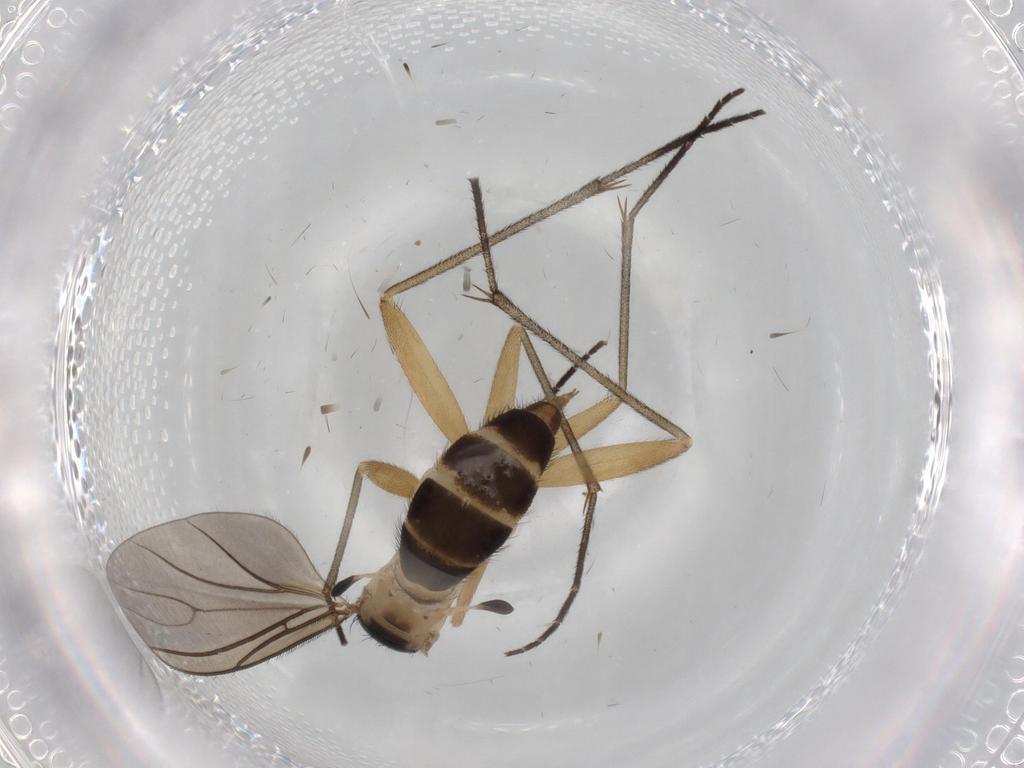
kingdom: Animalia
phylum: Arthropoda
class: Insecta
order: Diptera
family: Sciaridae
